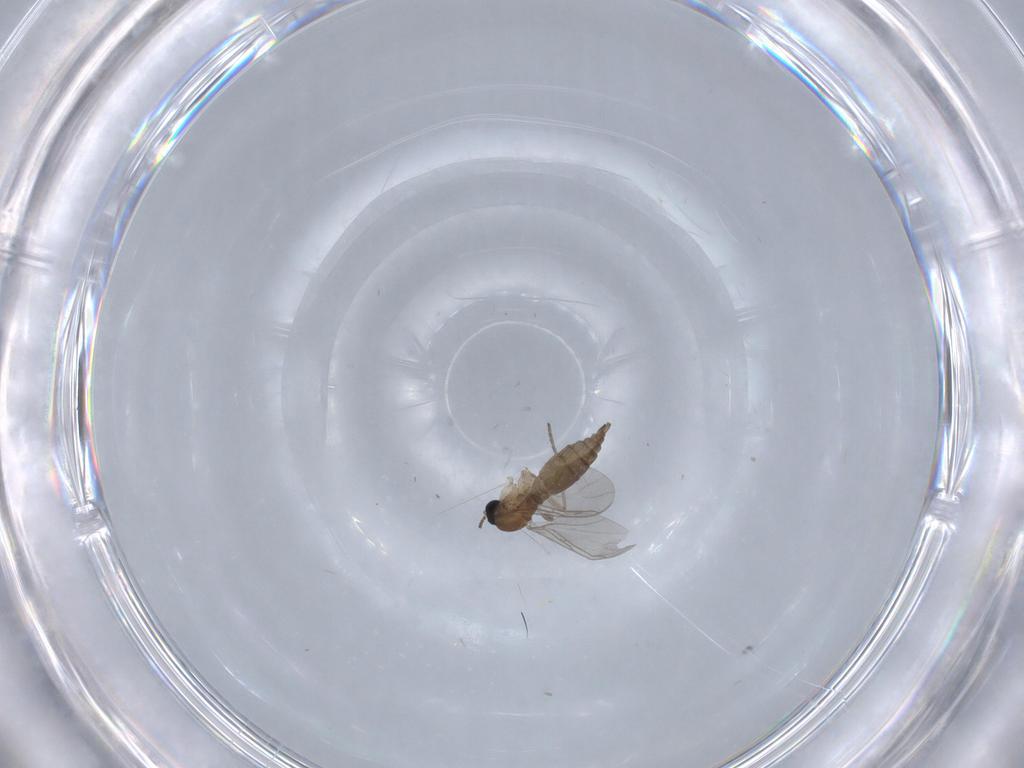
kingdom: Animalia
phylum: Arthropoda
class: Insecta
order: Diptera
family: Sciaridae
